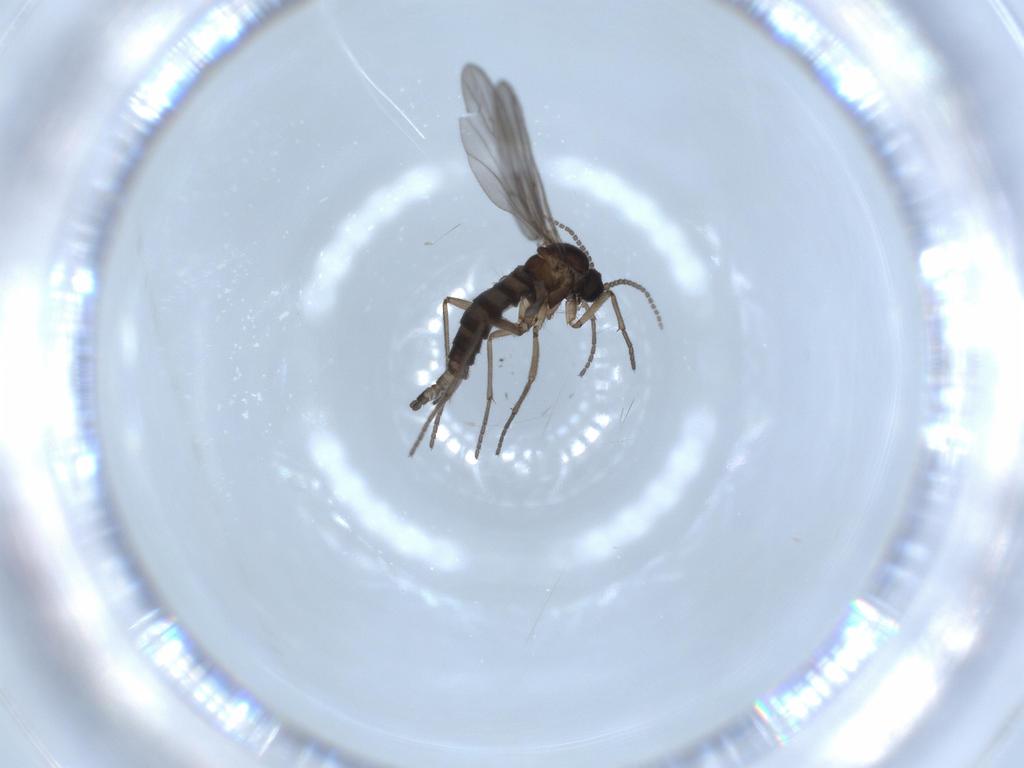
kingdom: Animalia
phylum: Arthropoda
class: Insecta
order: Diptera
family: Sciaridae
